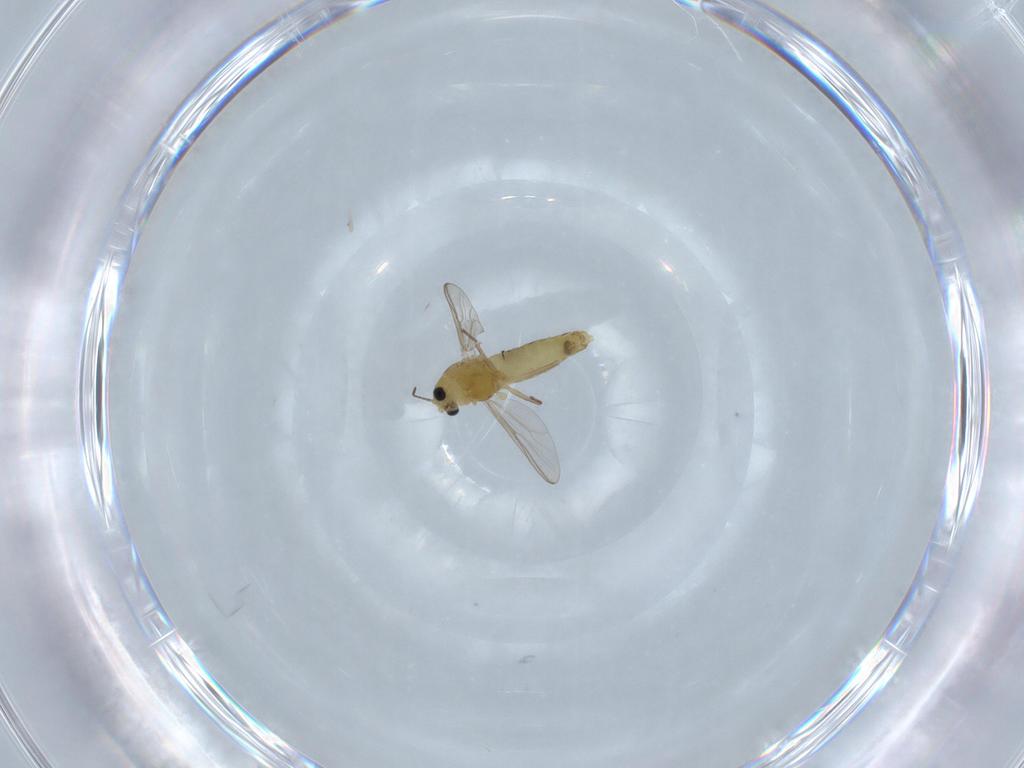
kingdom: Animalia
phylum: Arthropoda
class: Insecta
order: Diptera
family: Chironomidae
